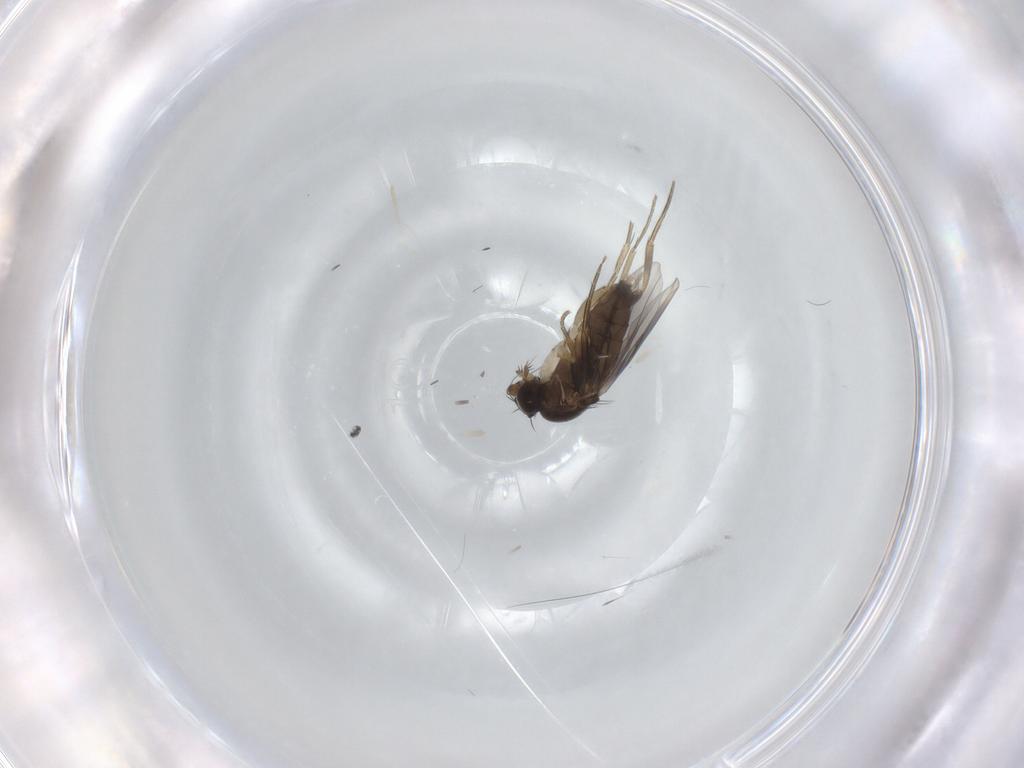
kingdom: Animalia
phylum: Arthropoda
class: Insecta
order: Diptera
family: Phoridae
